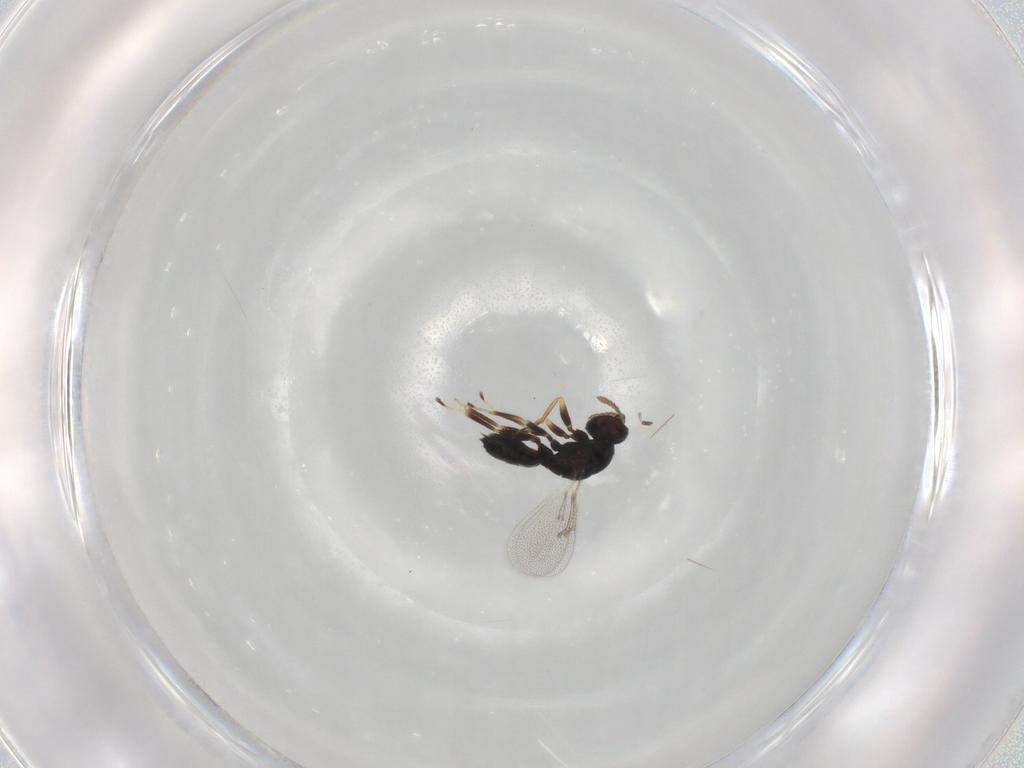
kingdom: Animalia
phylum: Arthropoda
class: Insecta
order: Hymenoptera
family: Eulophidae
